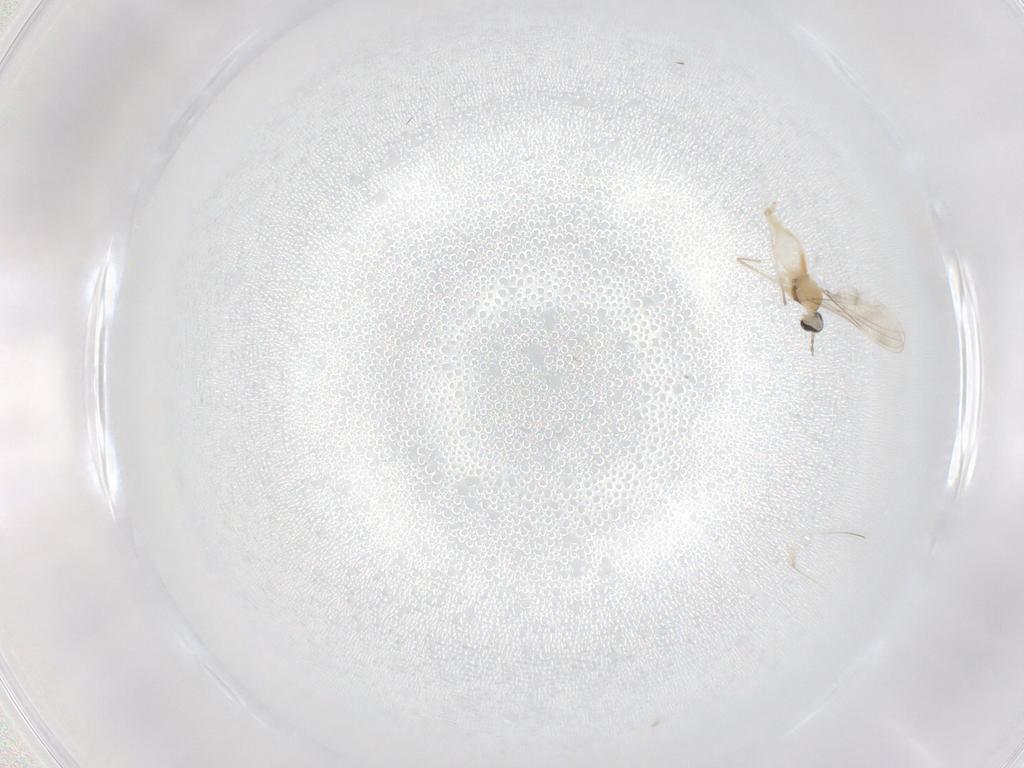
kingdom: Animalia
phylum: Arthropoda
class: Insecta
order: Diptera
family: Cecidomyiidae
